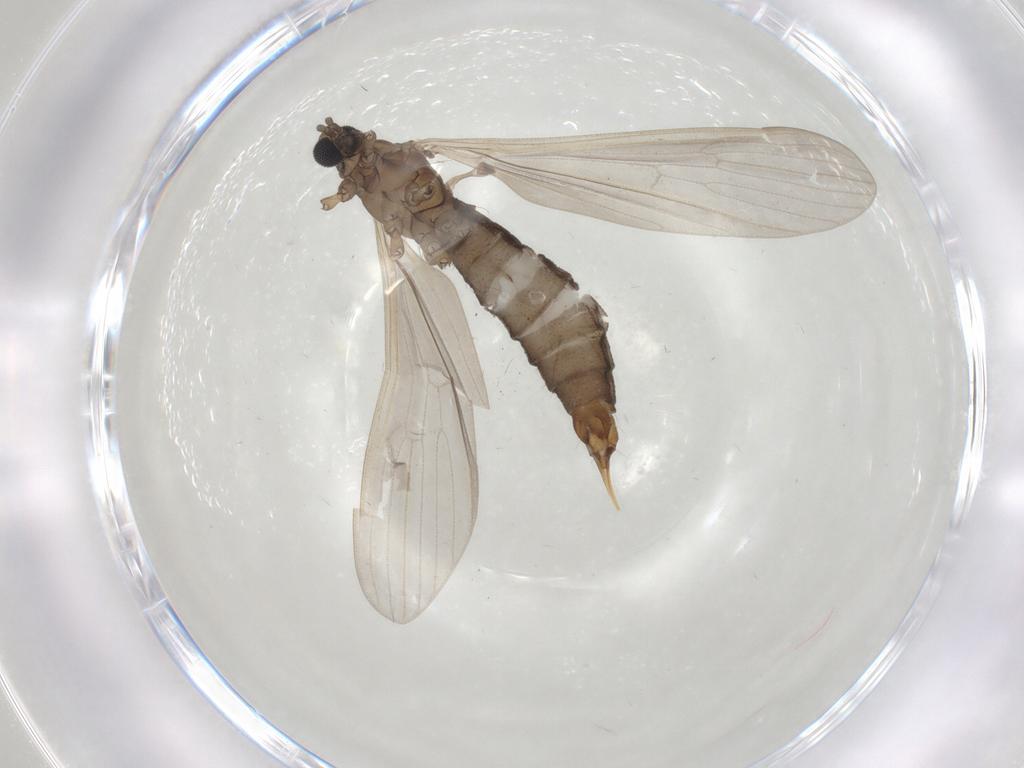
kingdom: Animalia
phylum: Arthropoda
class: Insecta
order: Diptera
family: Limoniidae
